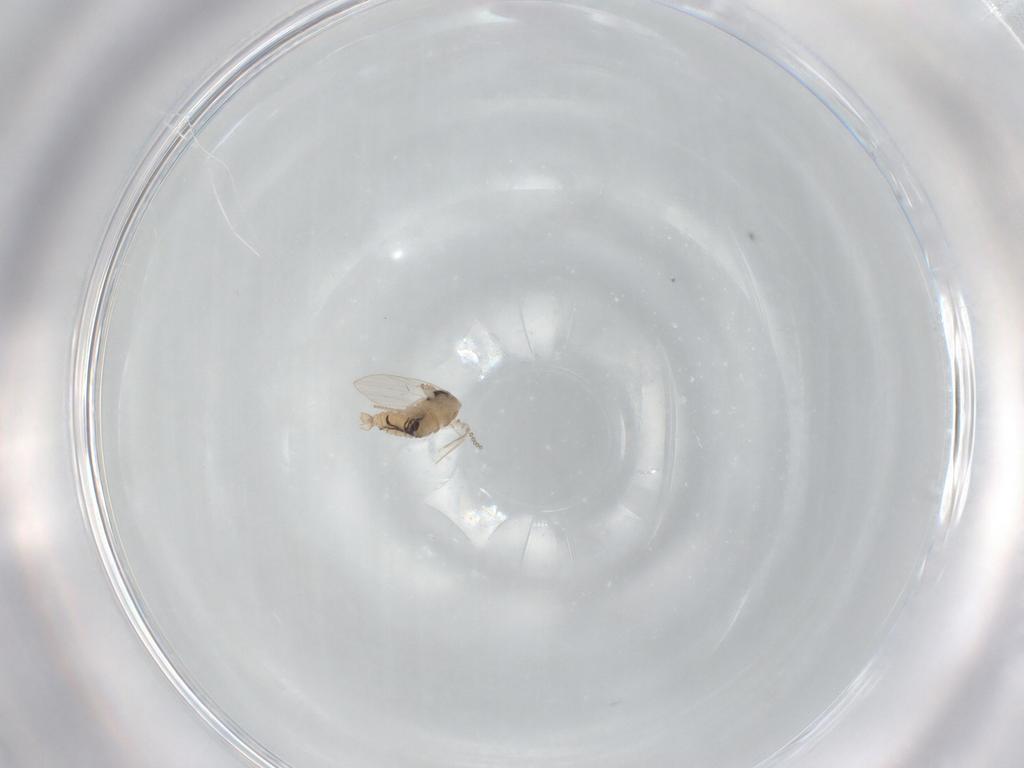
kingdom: Animalia
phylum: Arthropoda
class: Insecta
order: Diptera
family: Psychodidae
